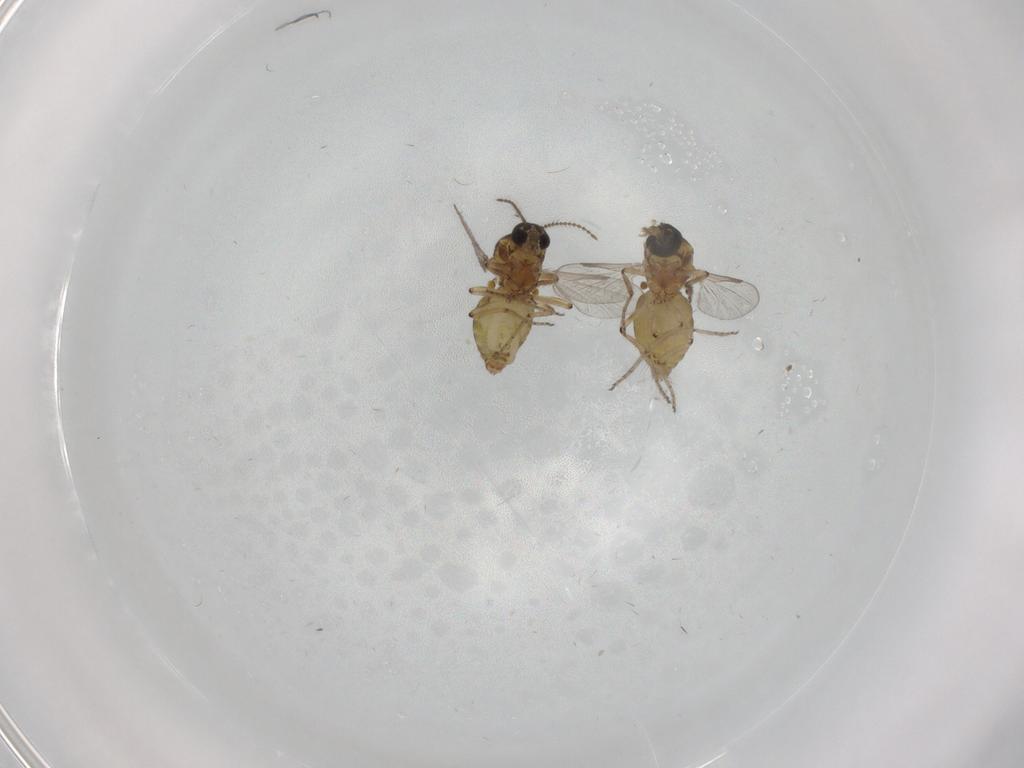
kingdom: Animalia
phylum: Arthropoda
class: Insecta
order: Diptera
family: Ceratopogonidae
